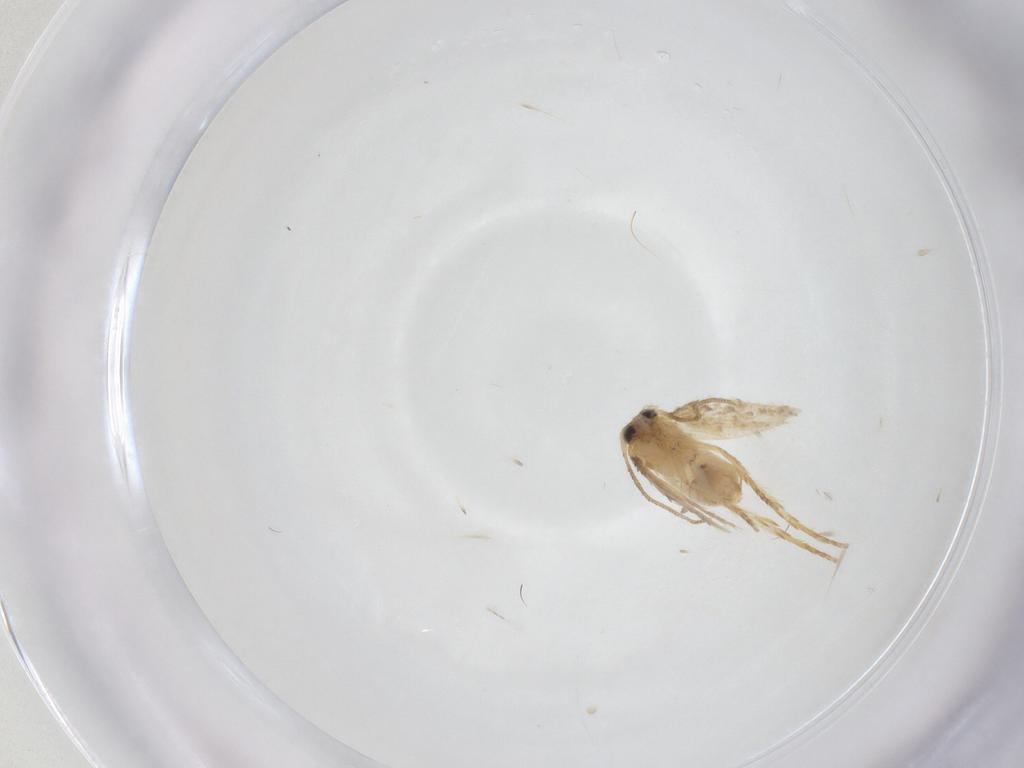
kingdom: Animalia
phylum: Arthropoda
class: Insecta
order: Lepidoptera
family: Nepticulidae
